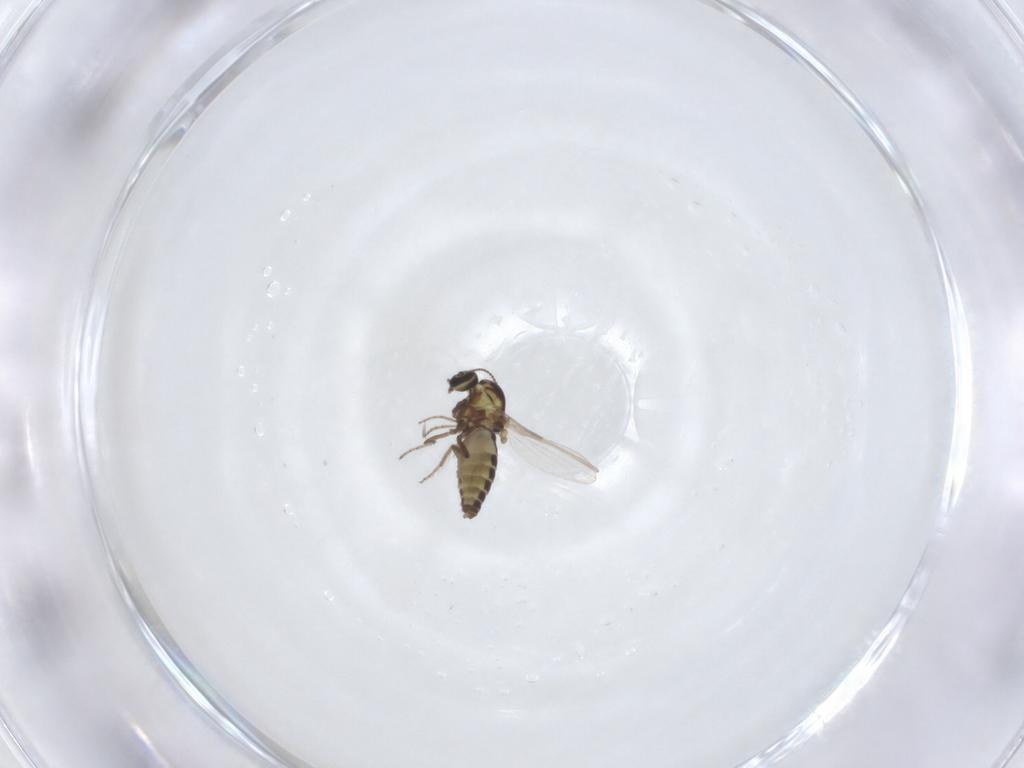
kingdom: Animalia
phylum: Arthropoda
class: Insecta
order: Diptera
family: Ceratopogonidae
